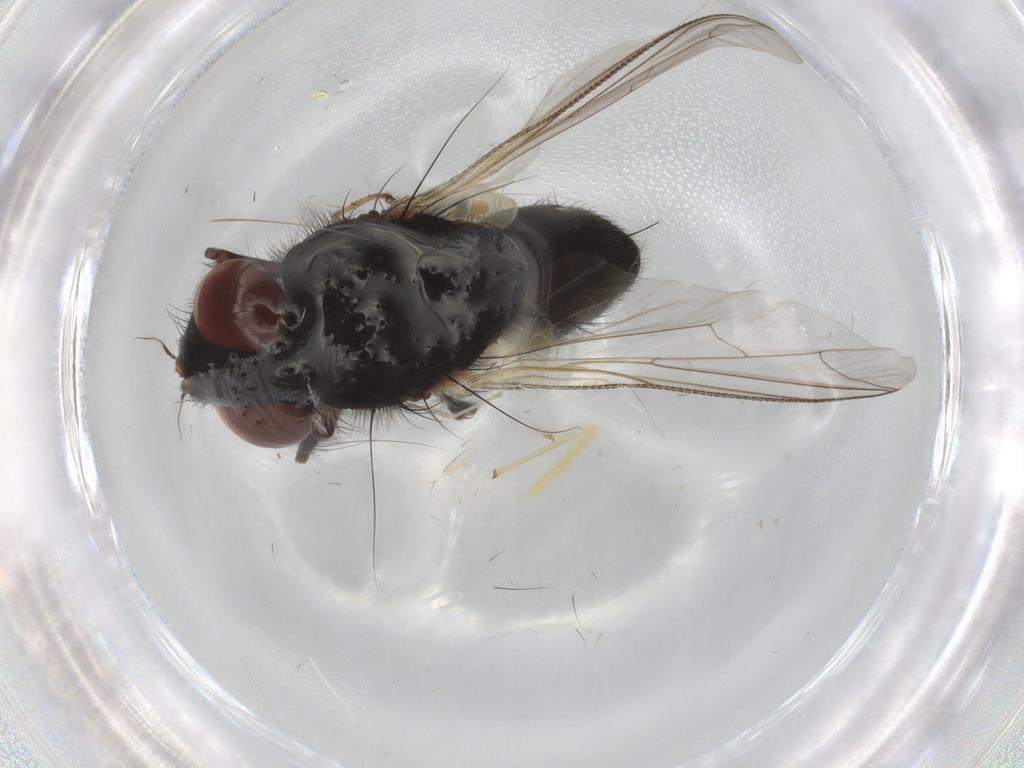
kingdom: Animalia
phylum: Arthropoda
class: Insecta
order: Diptera
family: Sarcophagidae
